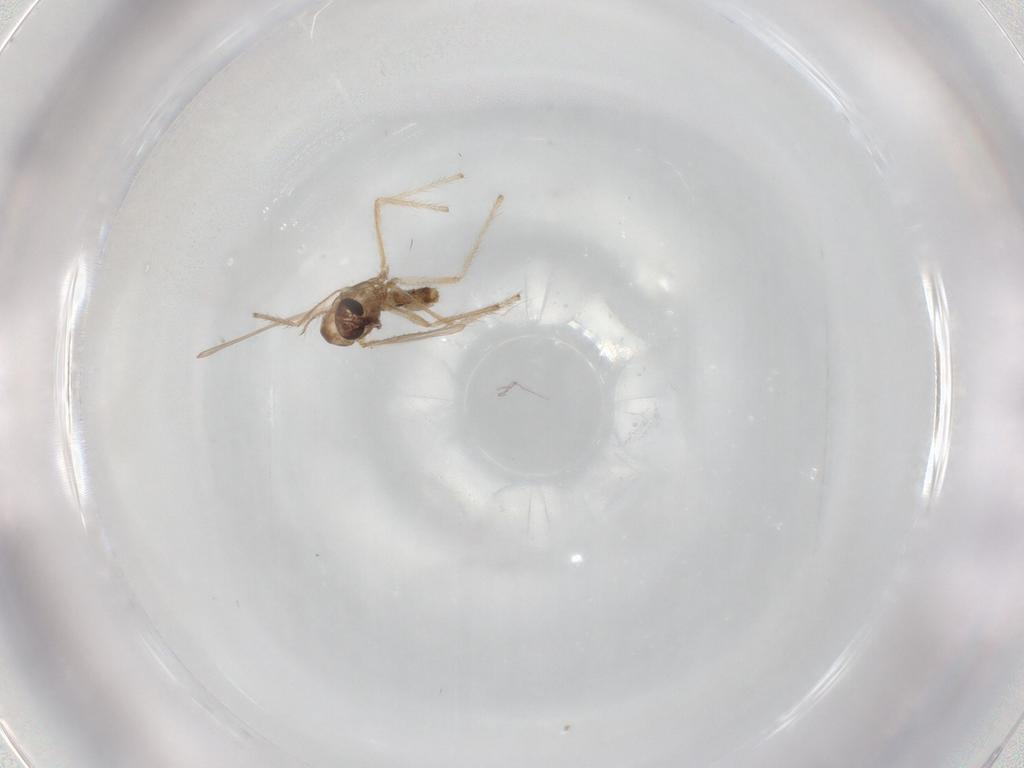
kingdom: Animalia
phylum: Arthropoda
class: Insecta
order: Diptera
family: Chironomidae
